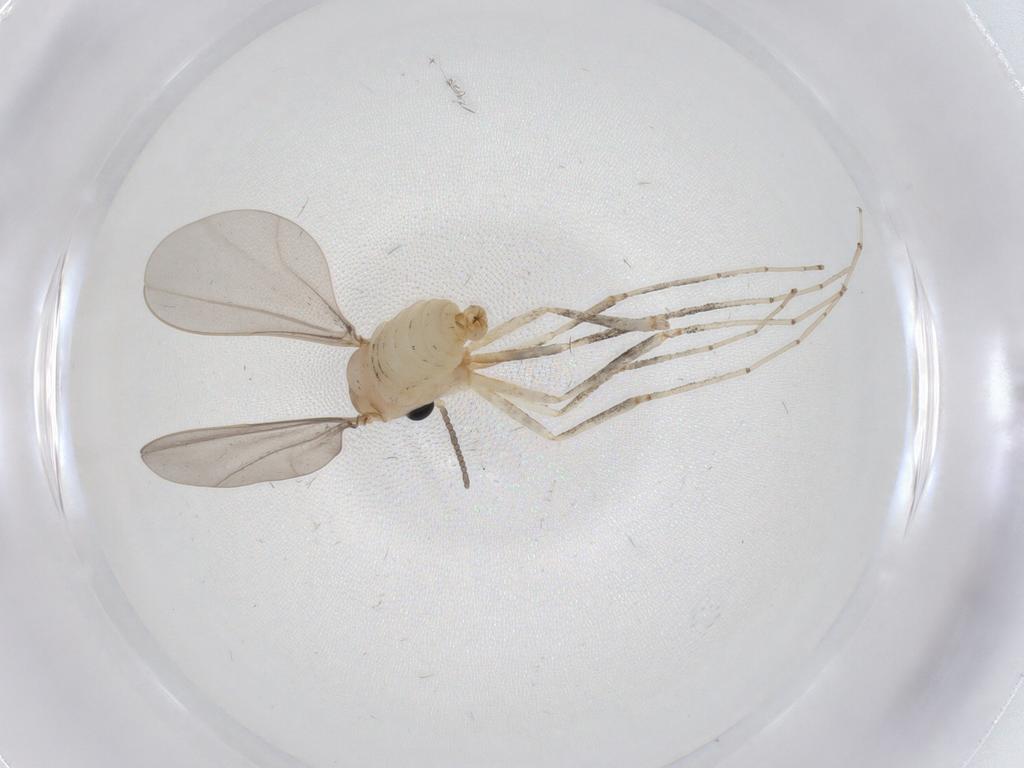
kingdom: Animalia
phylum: Arthropoda
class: Insecta
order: Diptera
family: Cecidomyiidae
